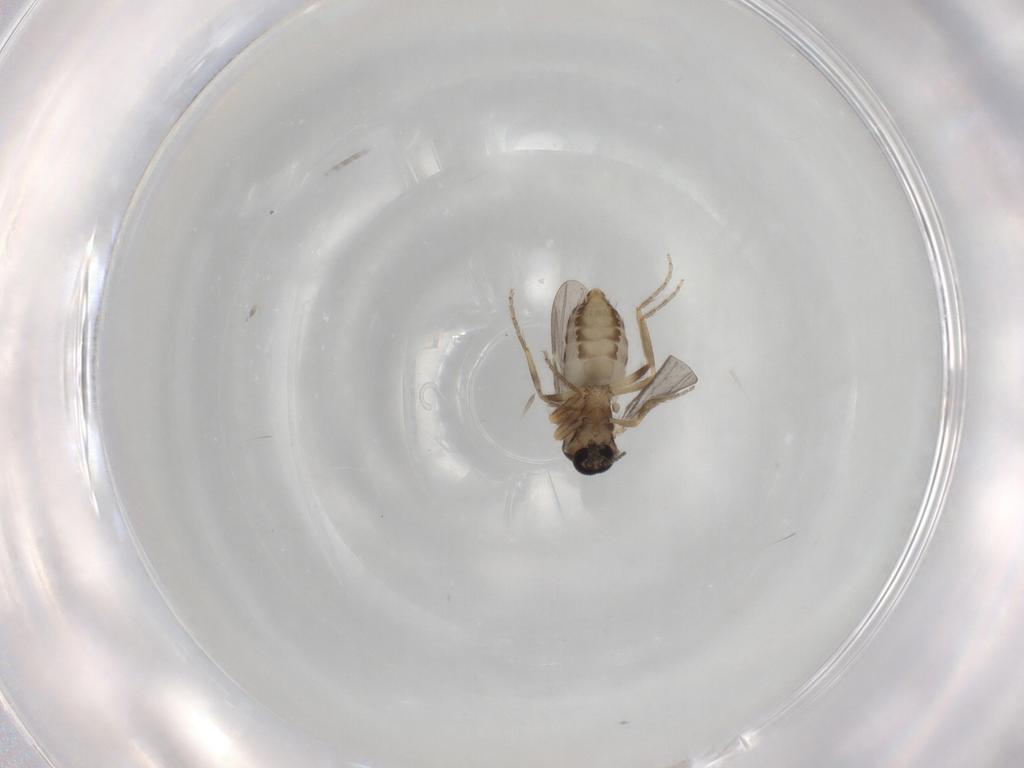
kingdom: Animalia
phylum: Arthropoda
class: Insecta
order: Diptera
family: Ceratopogonidae
